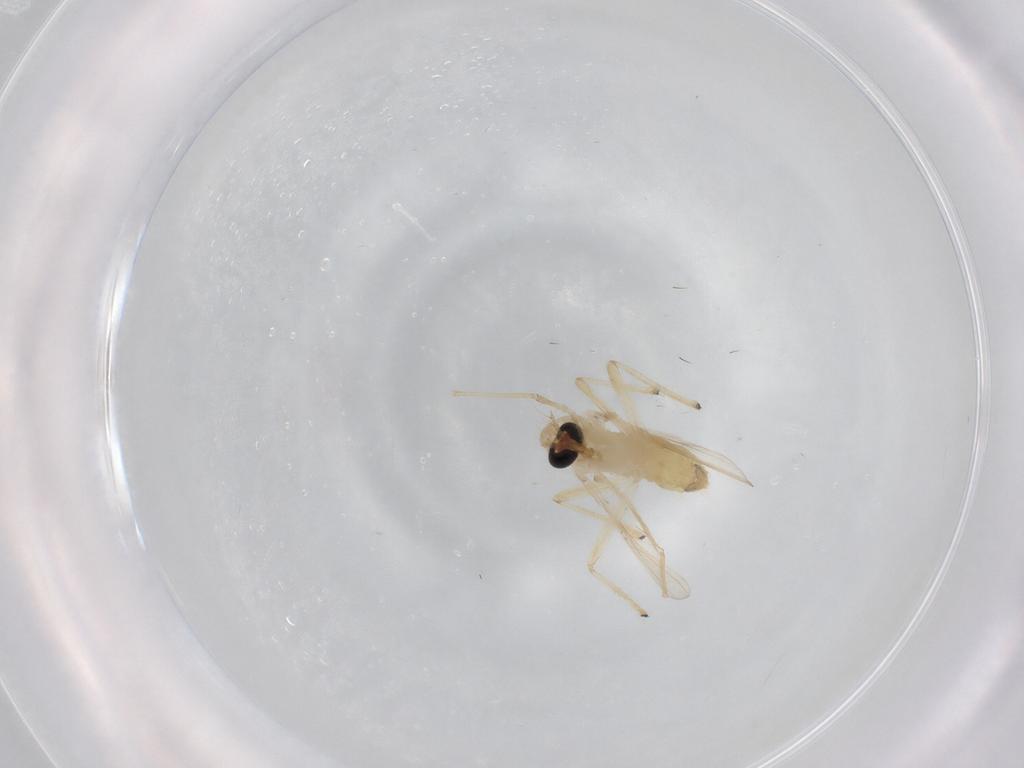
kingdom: Animalia
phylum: Arthropoda
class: Insecta
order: Diptera
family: Chironomidae
